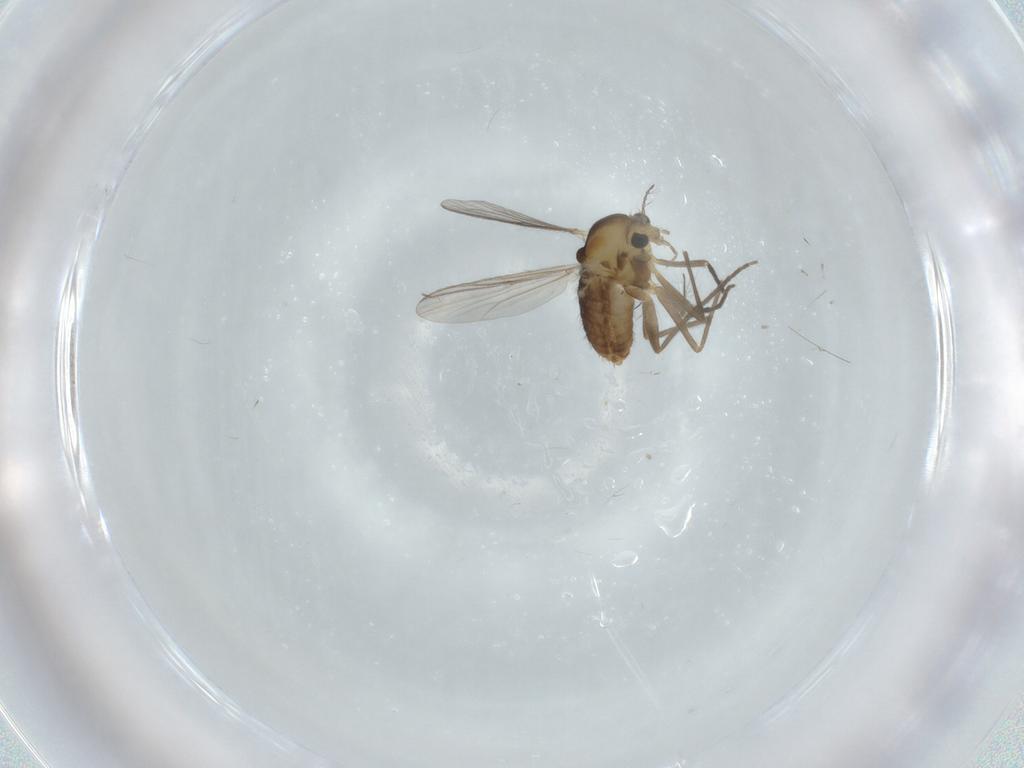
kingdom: Animalia
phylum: Arthropoda
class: Insecta
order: Diptera
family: Chironomidae
